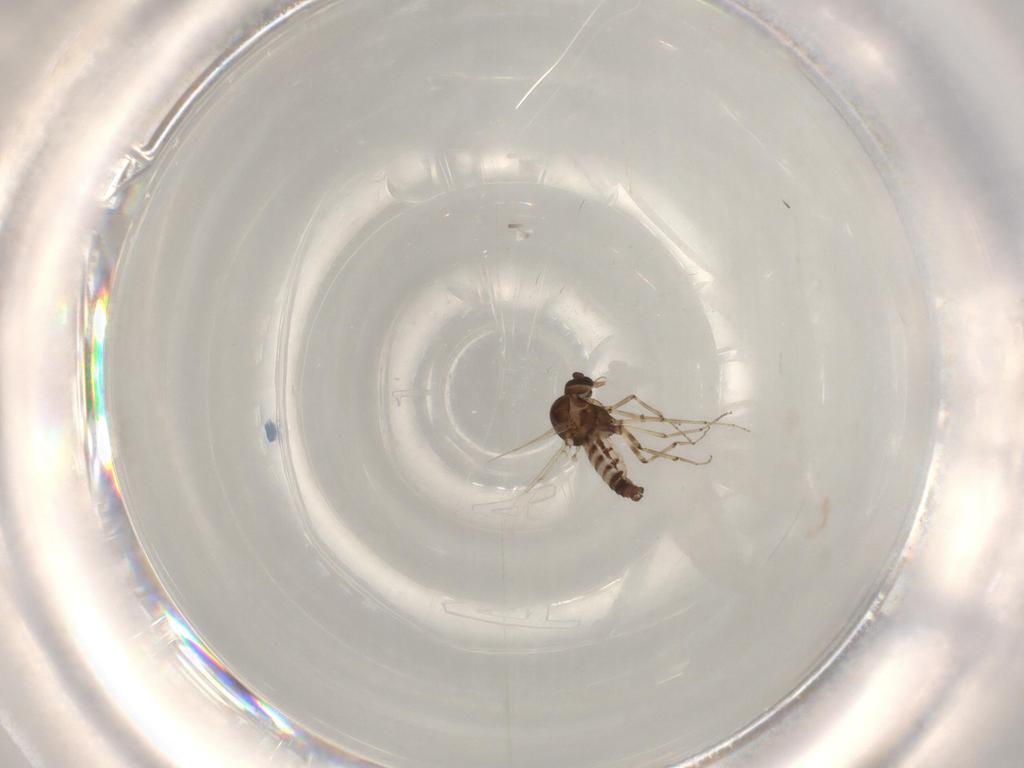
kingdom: Animalia
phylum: Arthropoda
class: Insecta
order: Diptera
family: Ceratopogonidae
